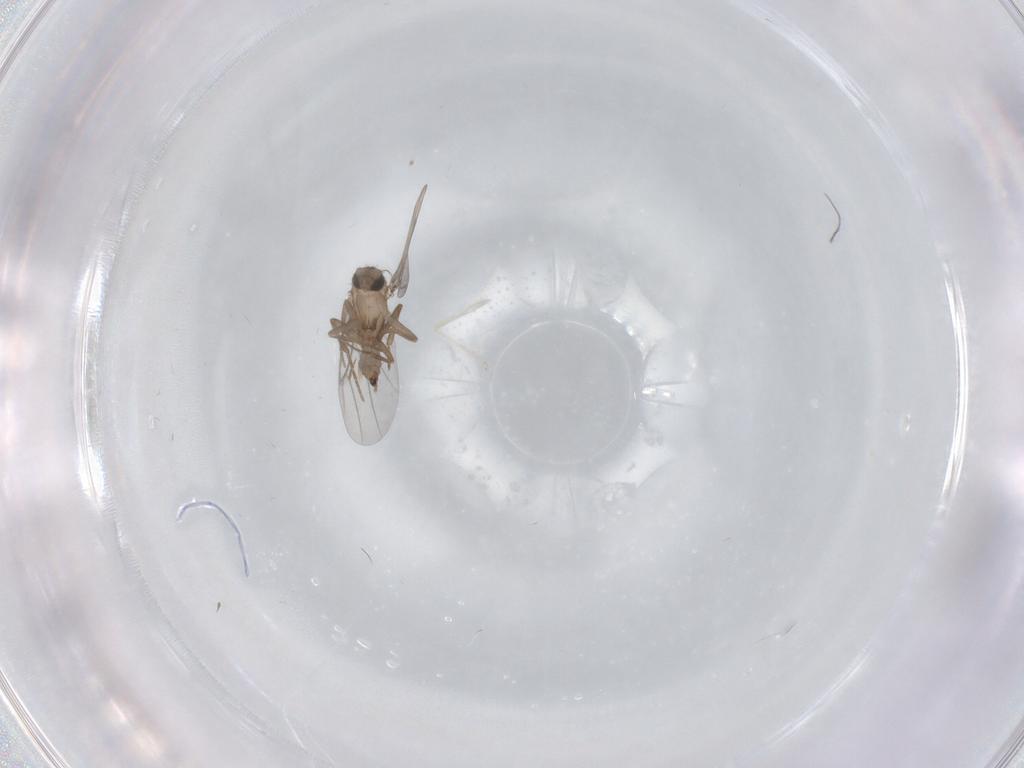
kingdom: Animalia
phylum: Arthropoda
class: Insecta
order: Diptera
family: Cecidomyiidae
